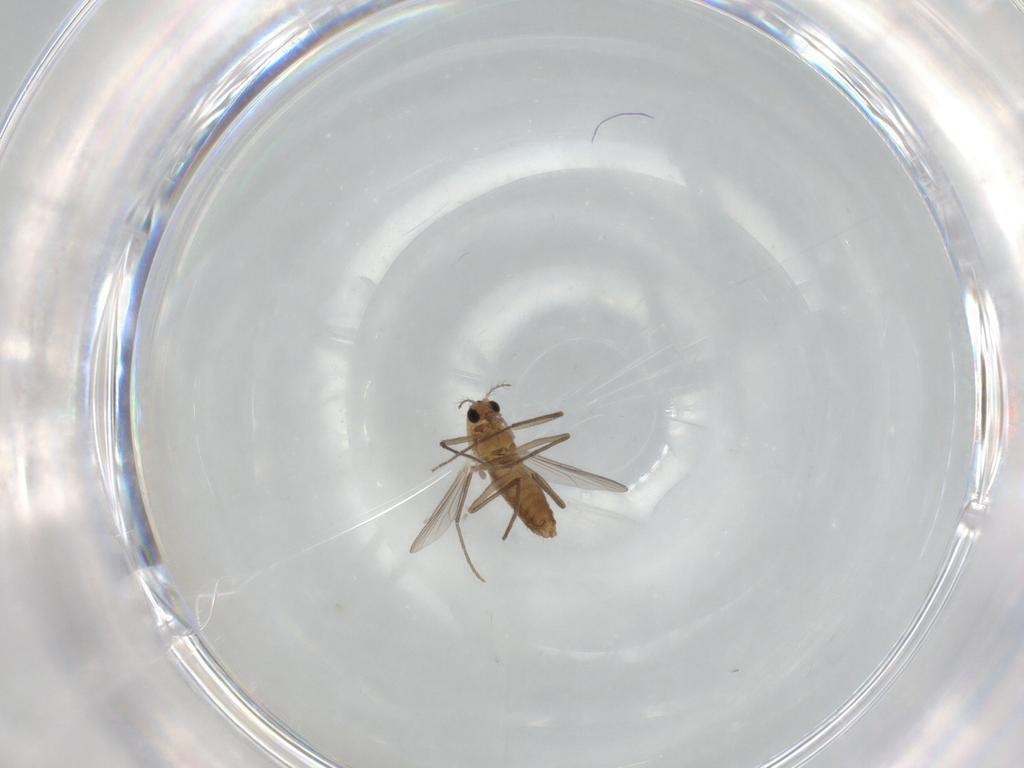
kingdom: Animalia
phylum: Arthropoda
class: Insecta
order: Diptera
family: Chironomidae
